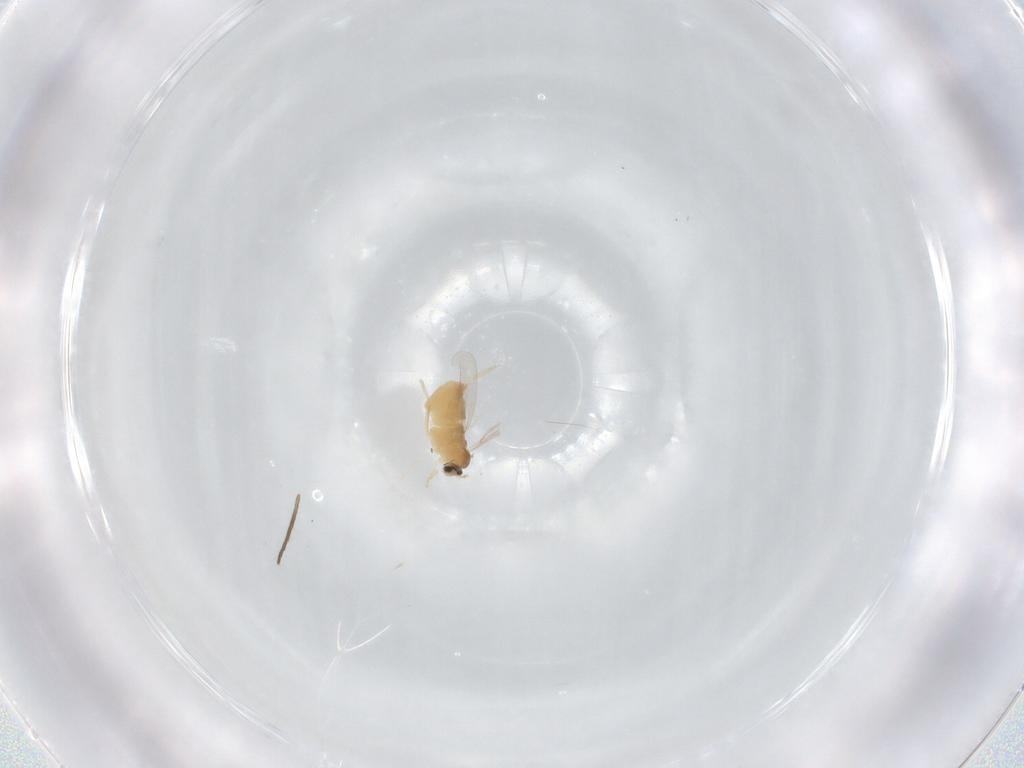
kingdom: Animalia
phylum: Arthropoda
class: Insecta
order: Diptera
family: Cecidomyiidae
